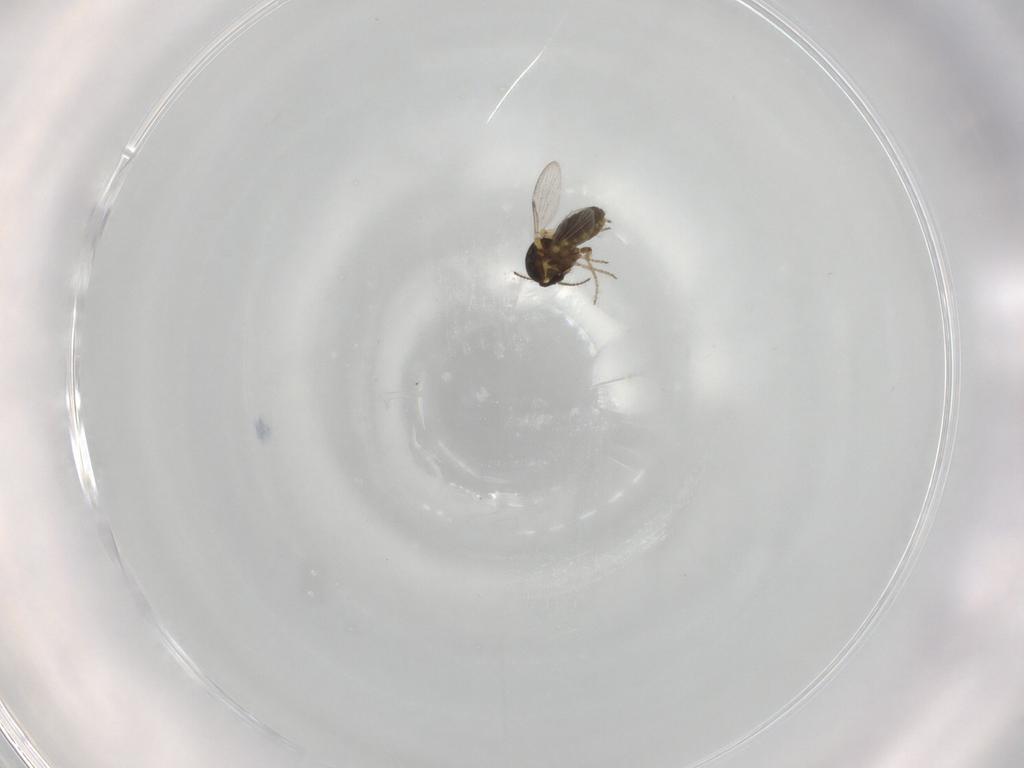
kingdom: Animalia
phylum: Arthropoda
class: Insecta
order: Diptera
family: Ceratopogonidae
